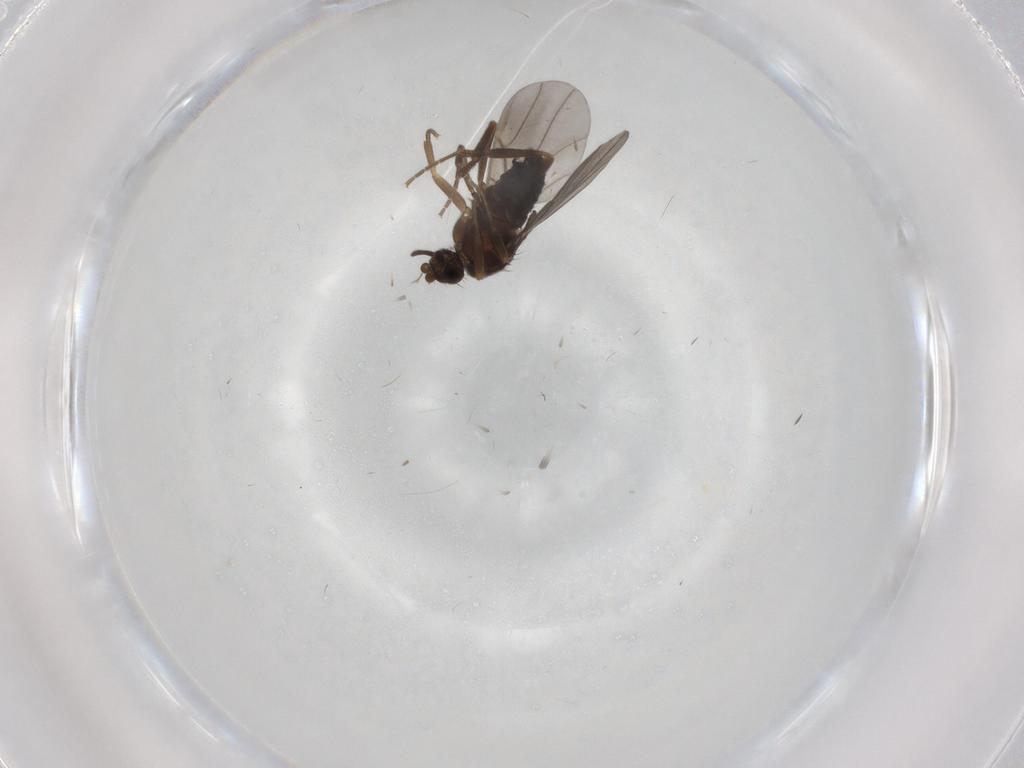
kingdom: Animalia
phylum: Arthropoda
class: Insecta
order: Diptera
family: Phoridae
